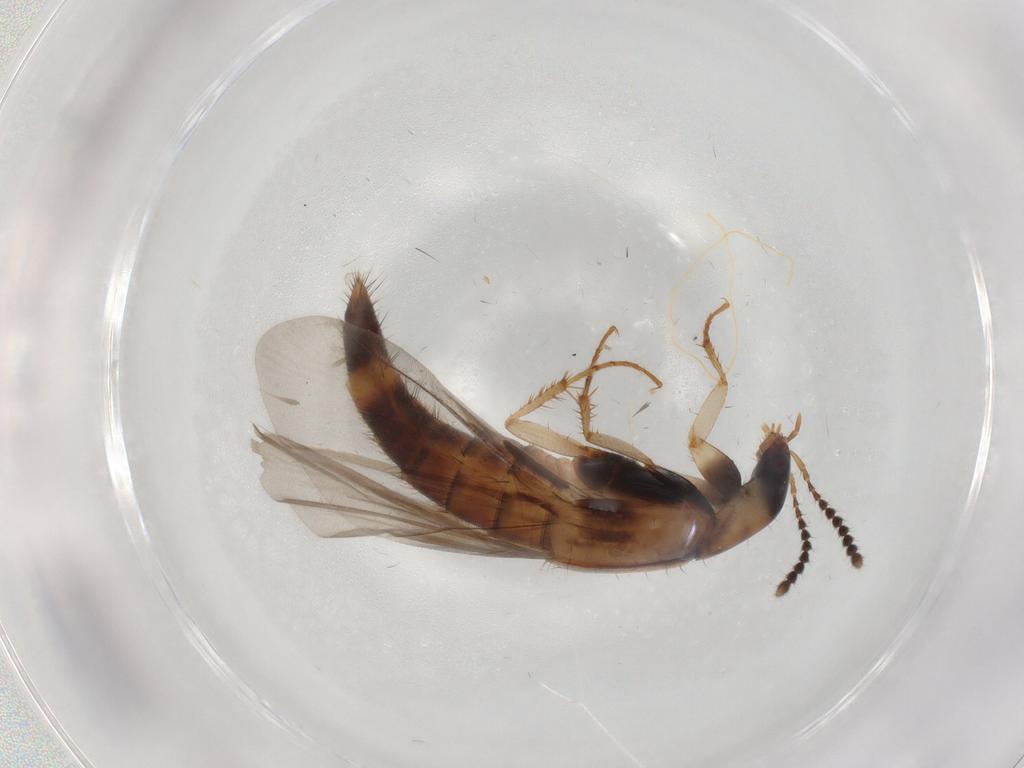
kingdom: Animalia
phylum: Arthropoda
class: Insecta
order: Coleoptera
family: Staphylinidae
